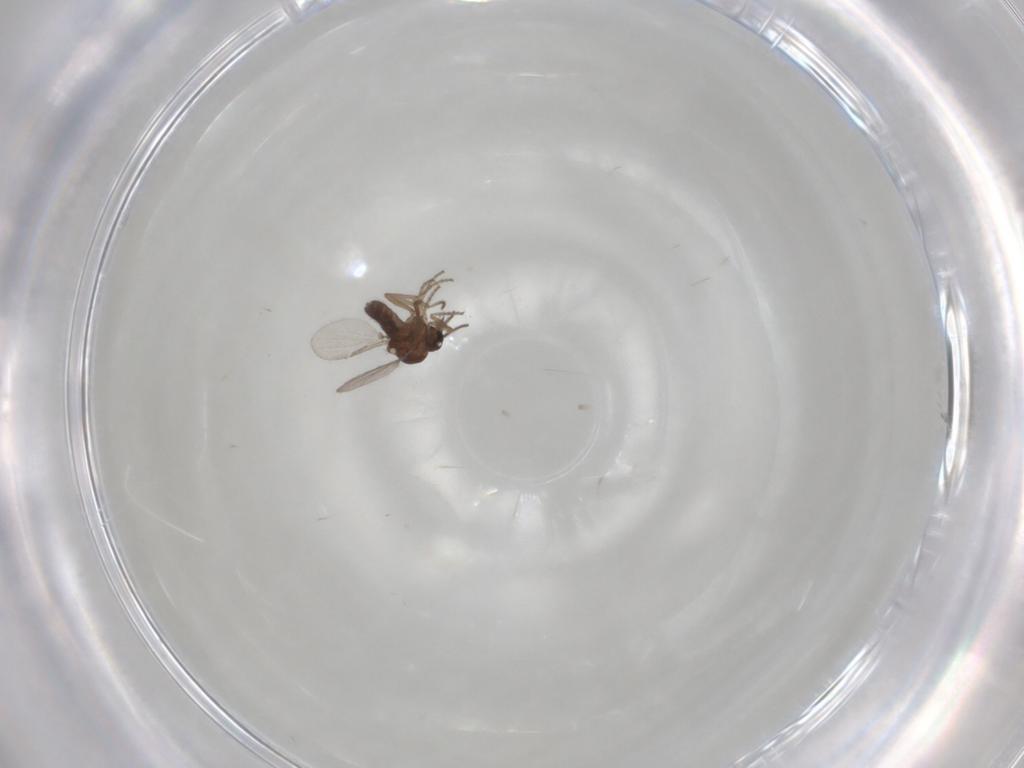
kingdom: Animalia
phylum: Arthropoda
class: Insecta
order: Diptera
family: Ceratopogonidae
